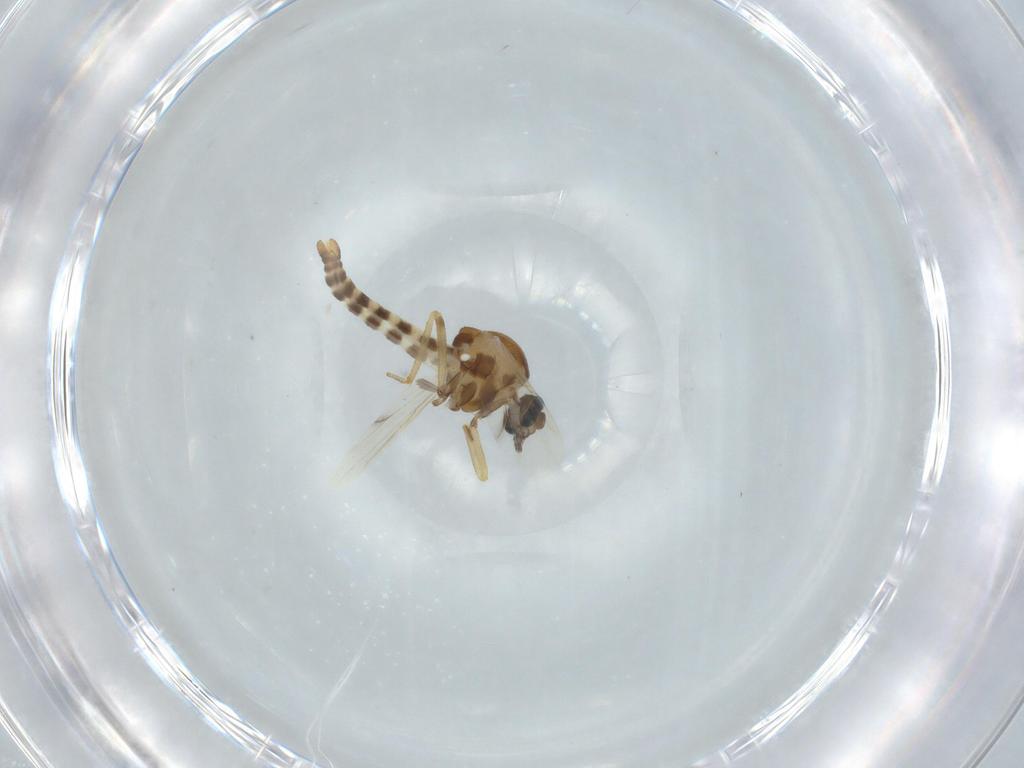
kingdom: Animalia
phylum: Arthropoda
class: Insecta
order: Diptera
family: Ceratopogonidae
